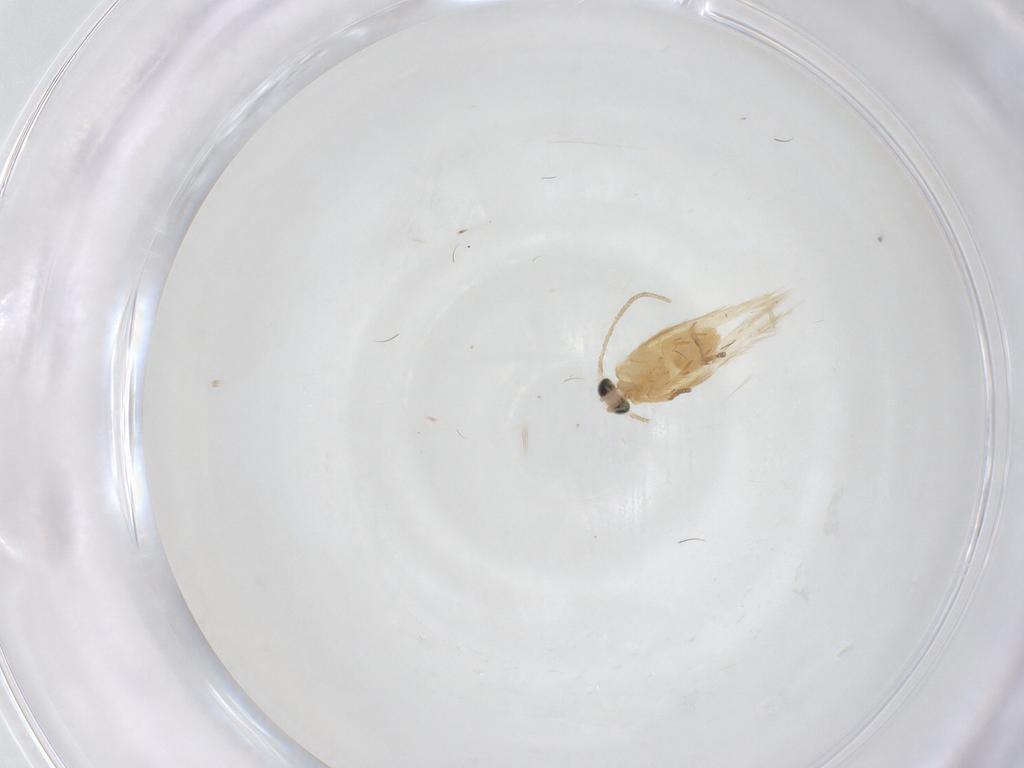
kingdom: Animalia
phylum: Arthropoda
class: Insecta
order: Lepidoptera
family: Nepticulidae
